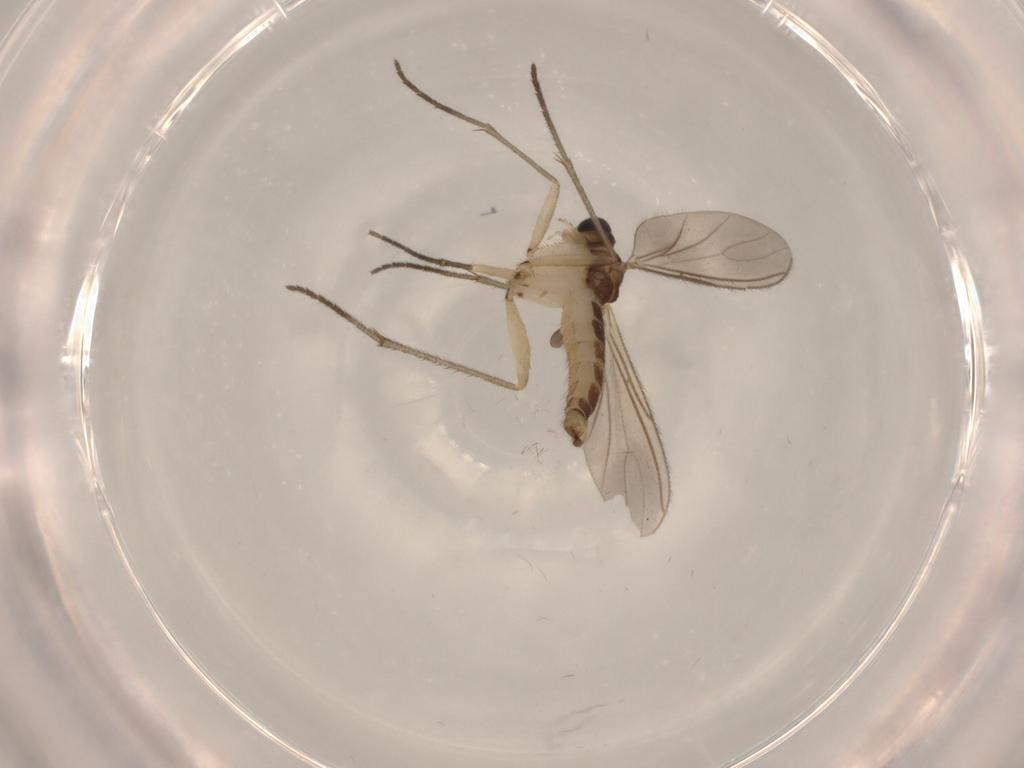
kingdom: Animalia
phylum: Arthropoda
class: Insecta
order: Diptera
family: Sciaridae
